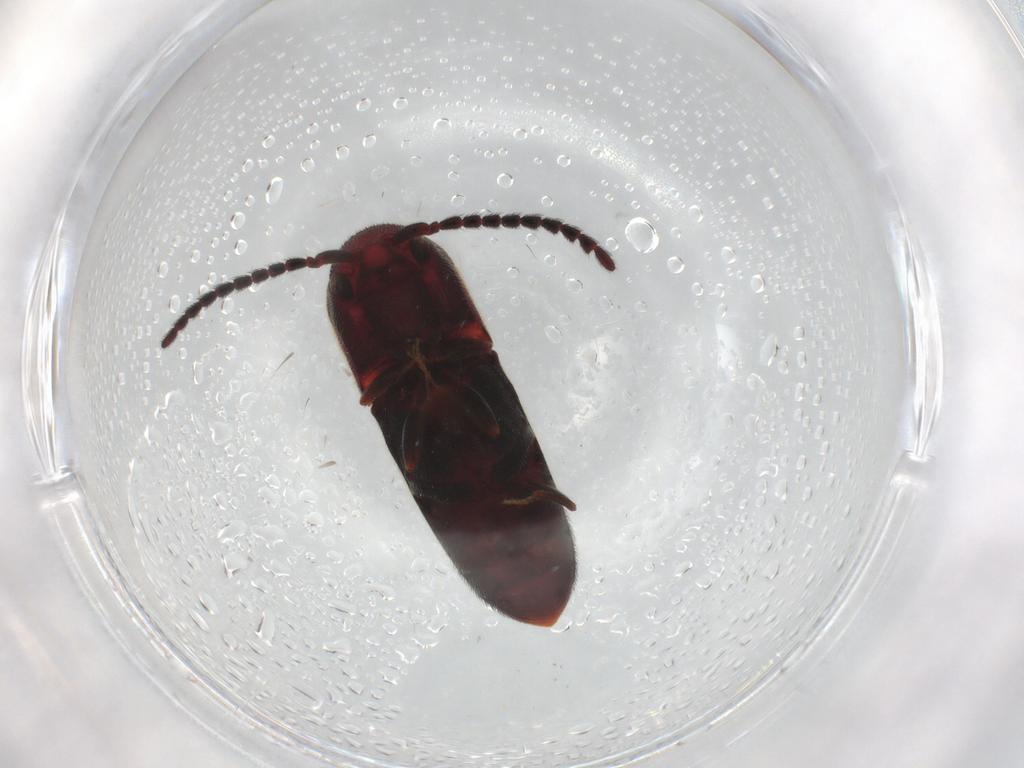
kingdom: Animalia
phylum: Arthropoda
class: Insecta
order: Coleoptera
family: Eucnemidae
